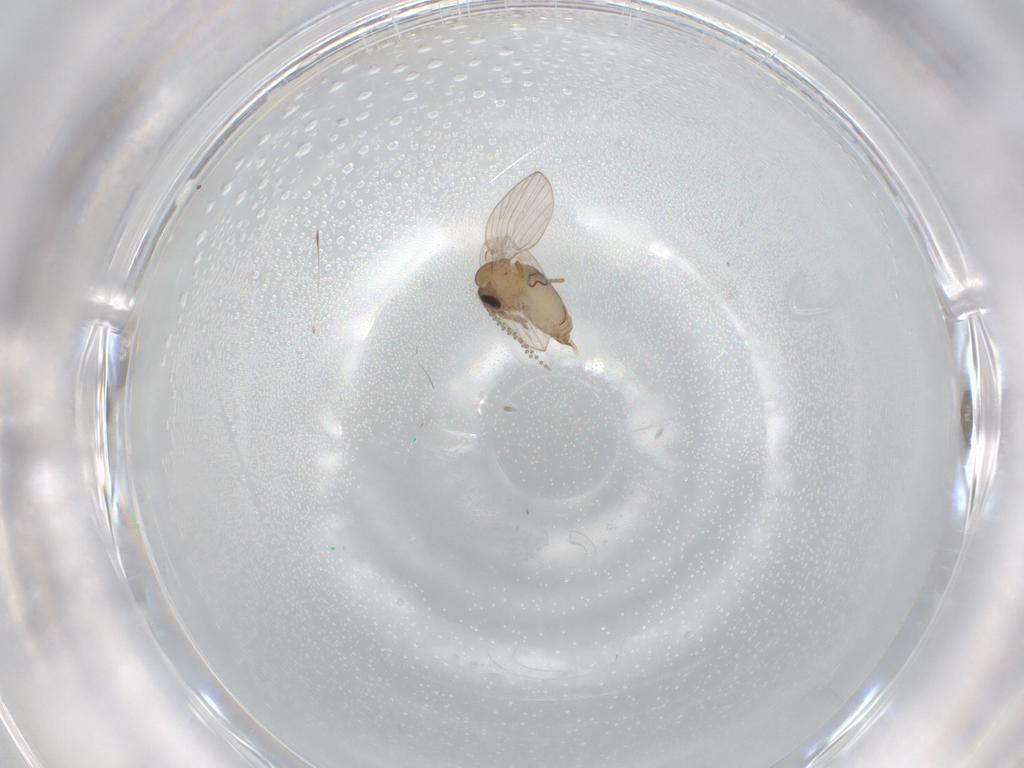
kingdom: Animalia
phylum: Arthropoda
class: Insecta
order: Diptera
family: Psychodidae
